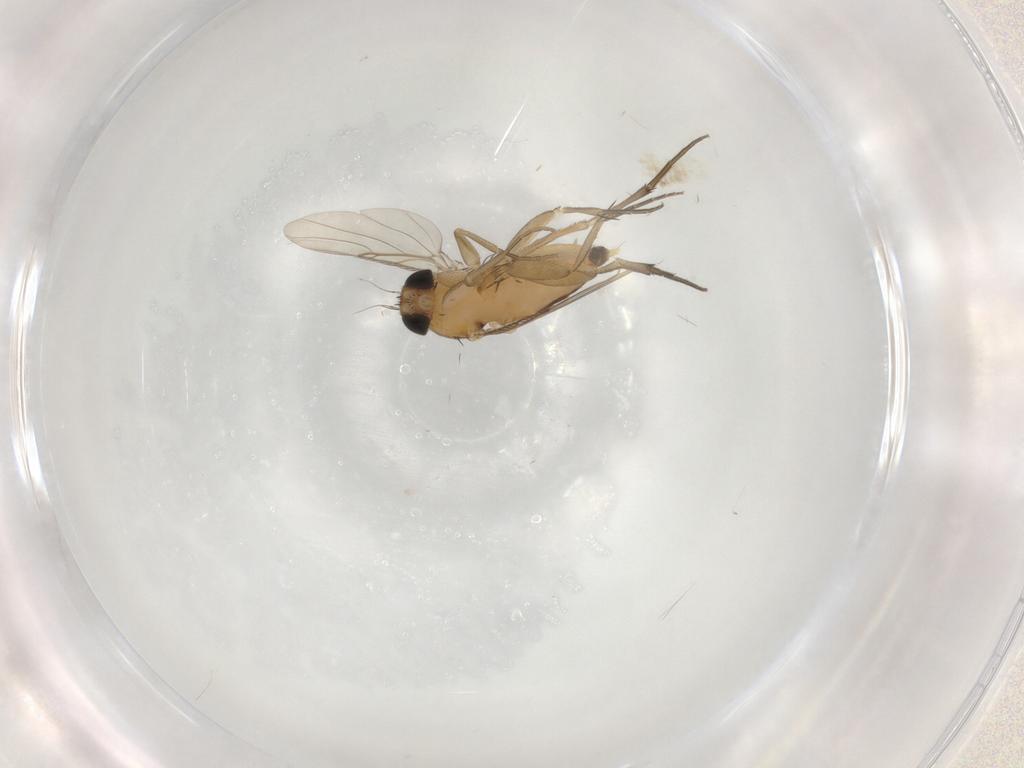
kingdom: Animalia
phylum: Arthropoda
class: Insecta
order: Diptera
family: Phoridae
